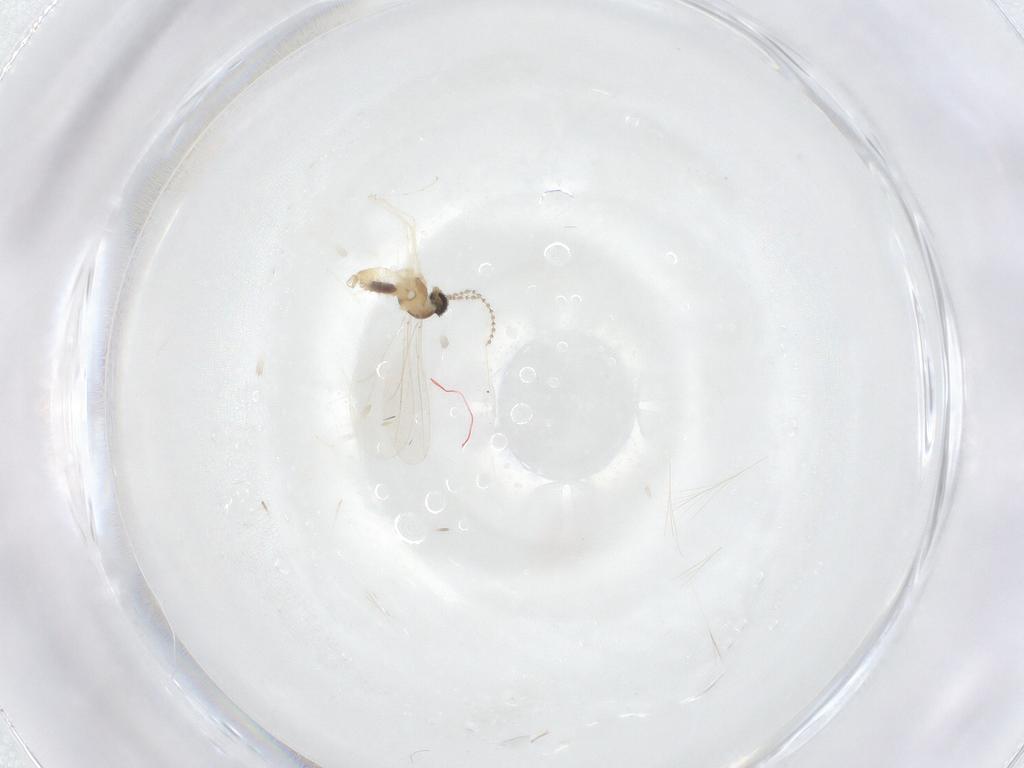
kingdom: Animalia
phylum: Arthropoda
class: Insecta
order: Diptera
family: Cecidomyiidae
